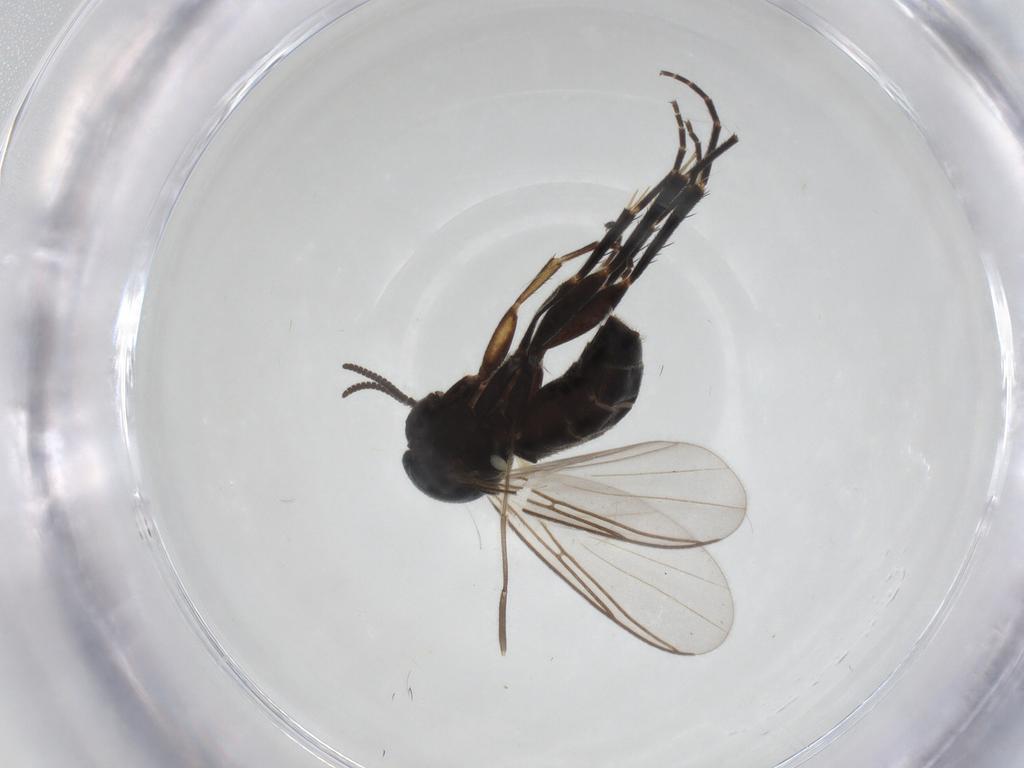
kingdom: Animalia
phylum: Arthropoda
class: Insecta
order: Diptera
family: Mycetophilidae
